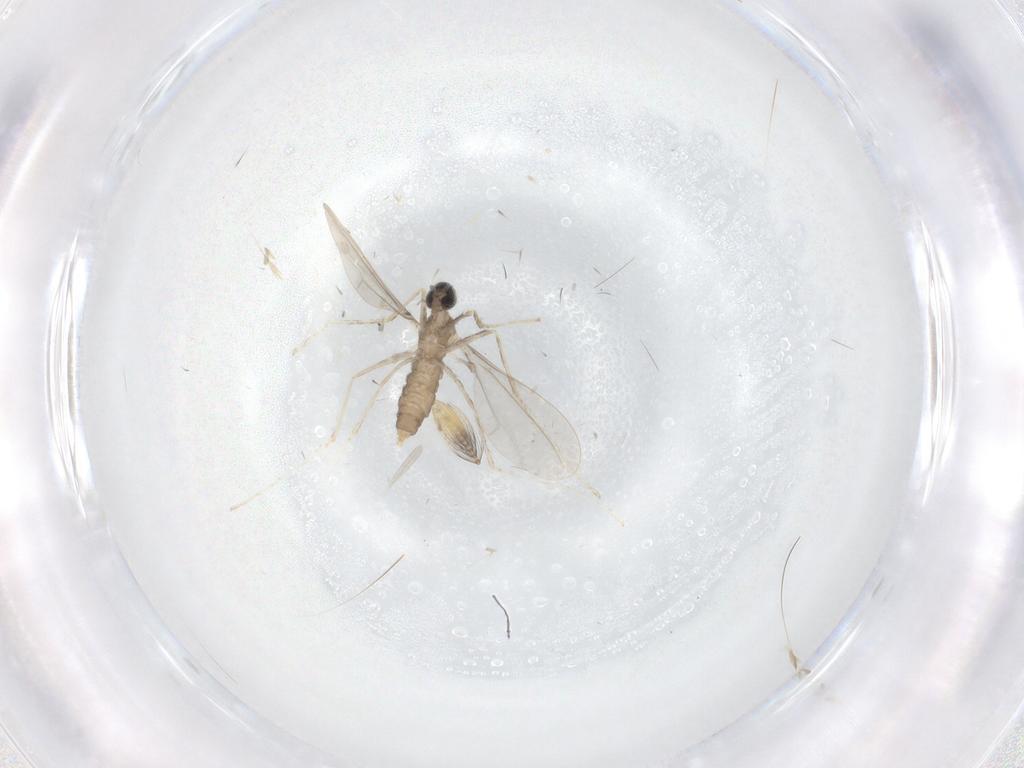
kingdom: Animalia
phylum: Arthropoda
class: Insecta
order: Diptera
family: Cecidomyiidae
